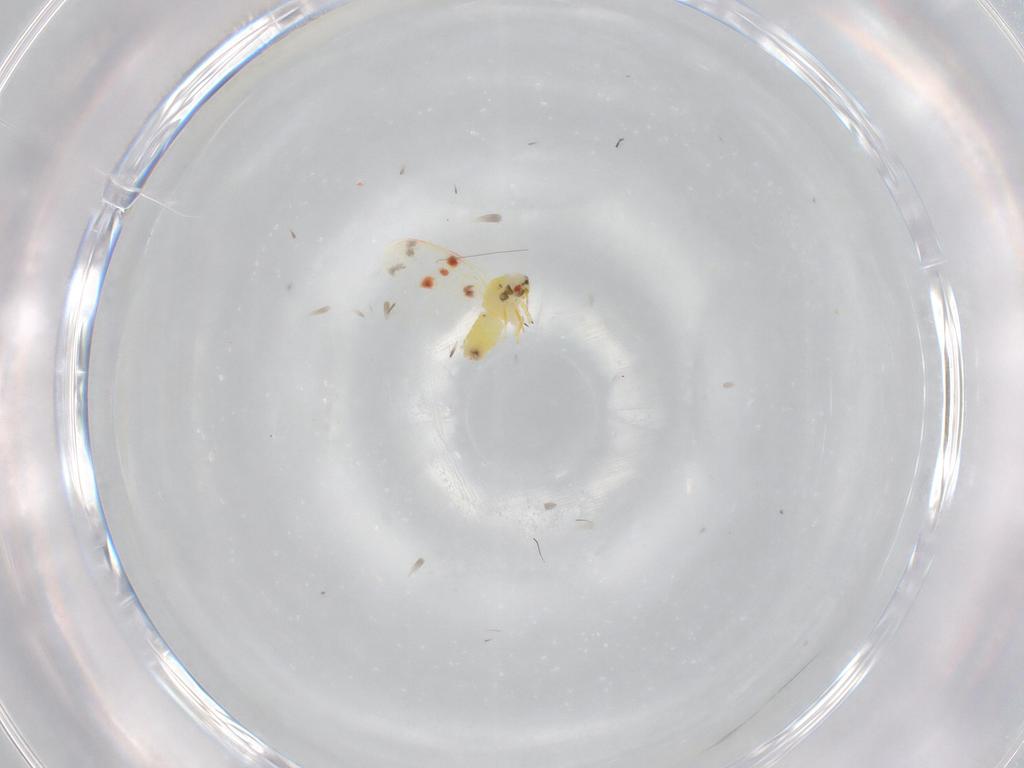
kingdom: Animalia
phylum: Arthropoda
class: Insecta
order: Hemiptera
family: Aleyrodidae
